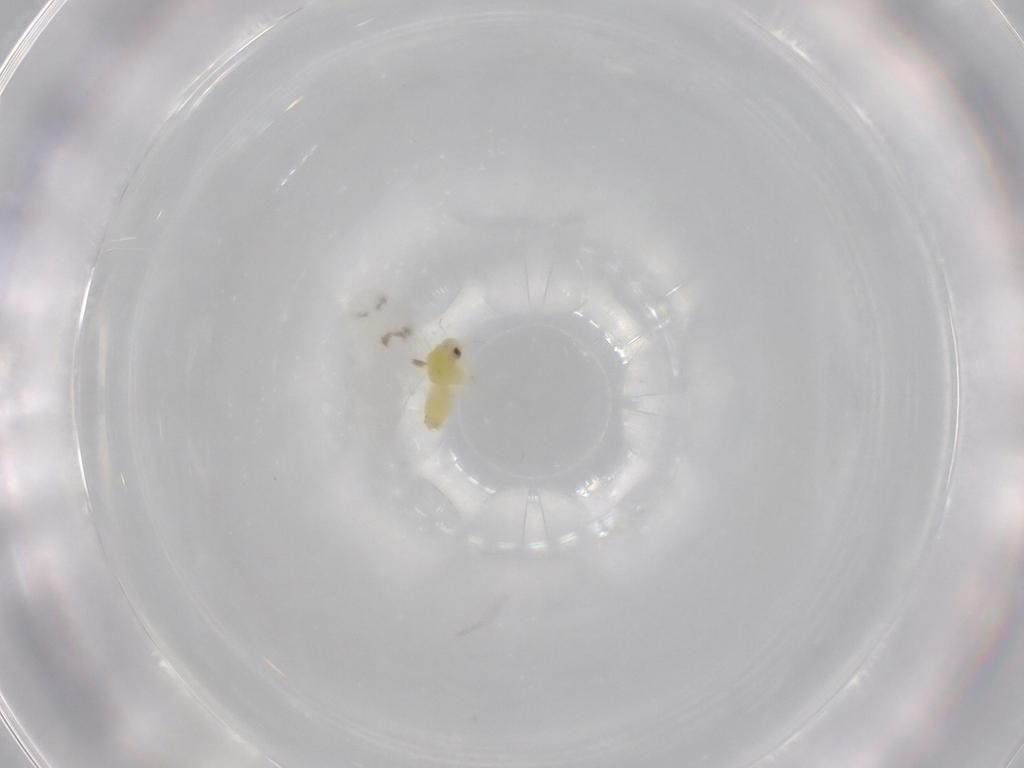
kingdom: Animalia
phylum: Arthropoda
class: Insecta
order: Hemiptera
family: Aleyrodidae
